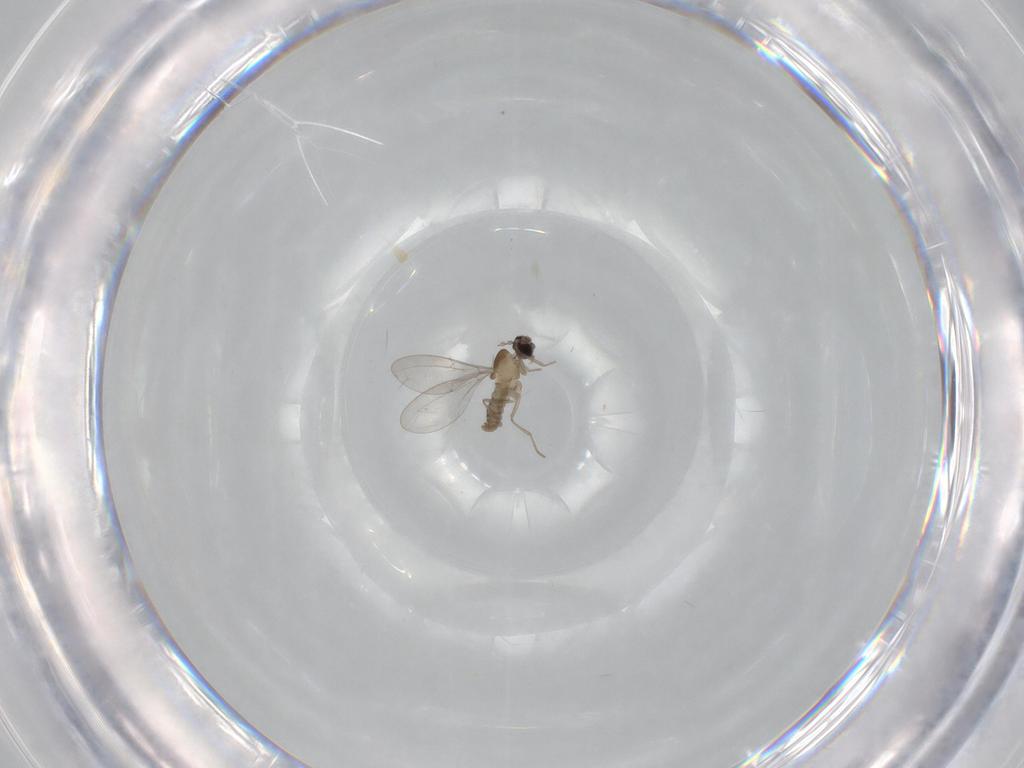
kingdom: Animalia
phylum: Arthropoda
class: Insecta
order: Diptera
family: Cecidomyiidae
